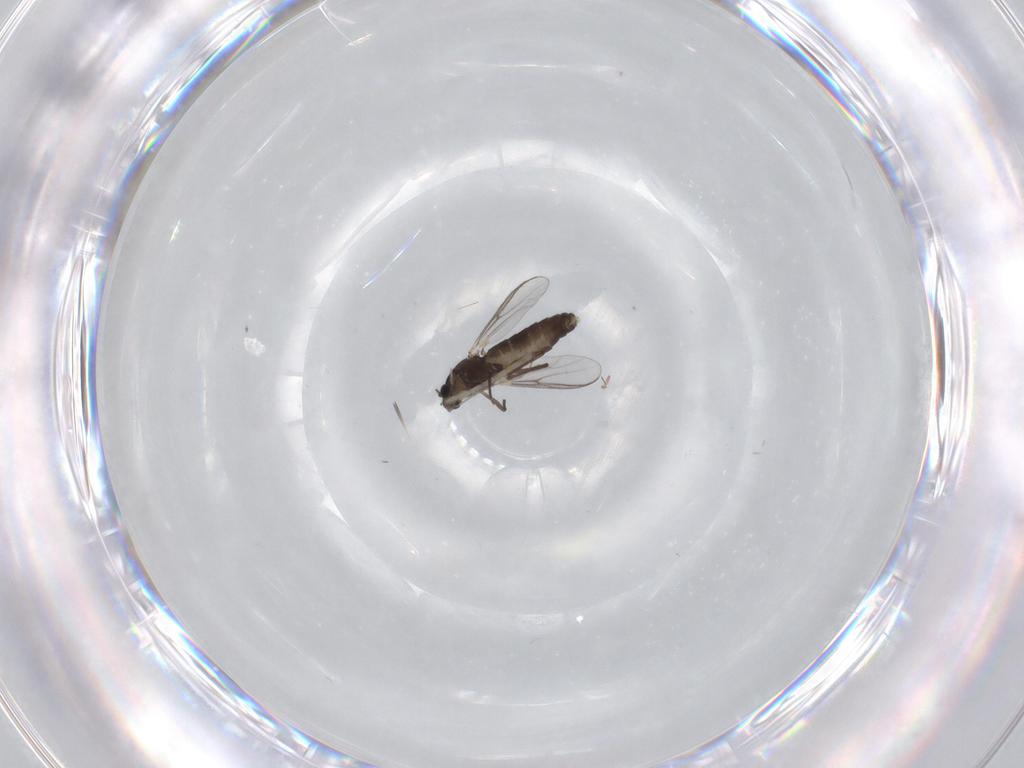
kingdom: Animalia
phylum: Arthropoda
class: Insecta
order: Diptera
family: Chironomidae
